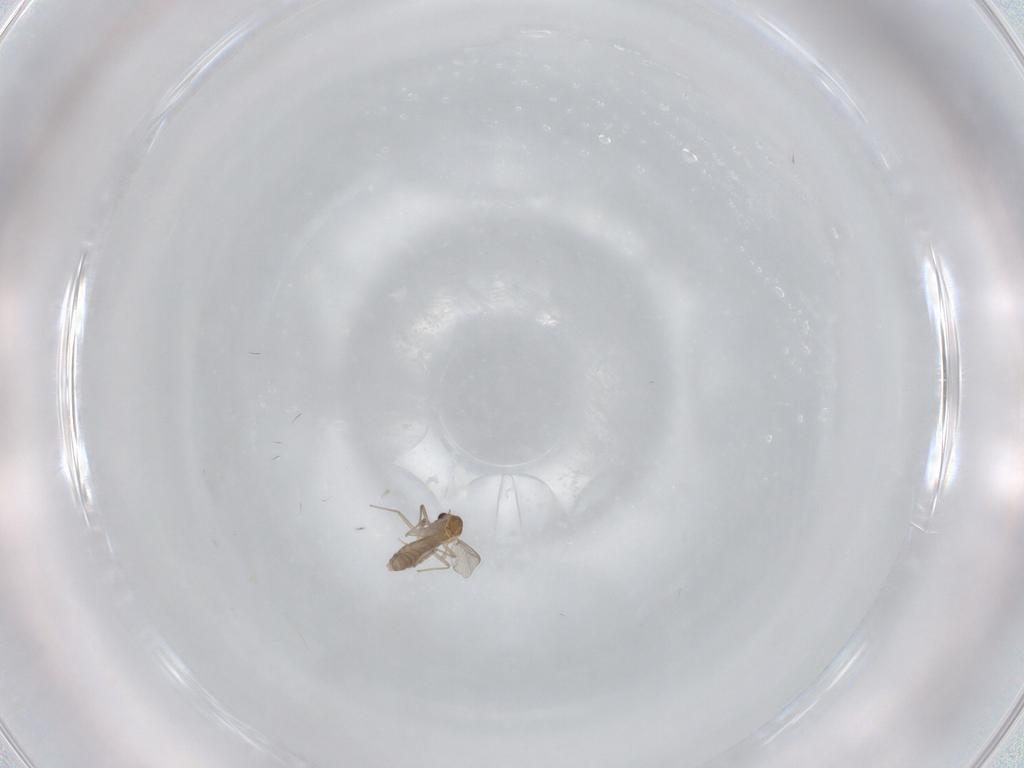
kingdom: Animalia
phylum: Arthropoda
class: Insecta
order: Diptera
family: Chironomidae
